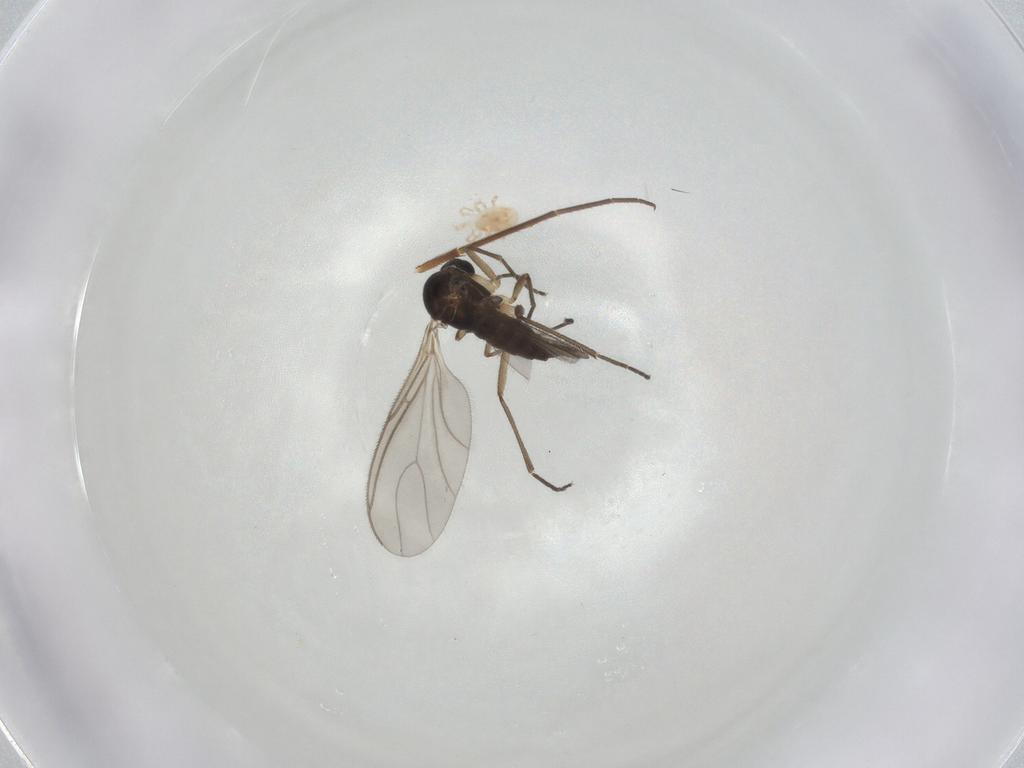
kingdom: Animalia
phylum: Arthropoda
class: Insecta
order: Diptera
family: Sciaridae
